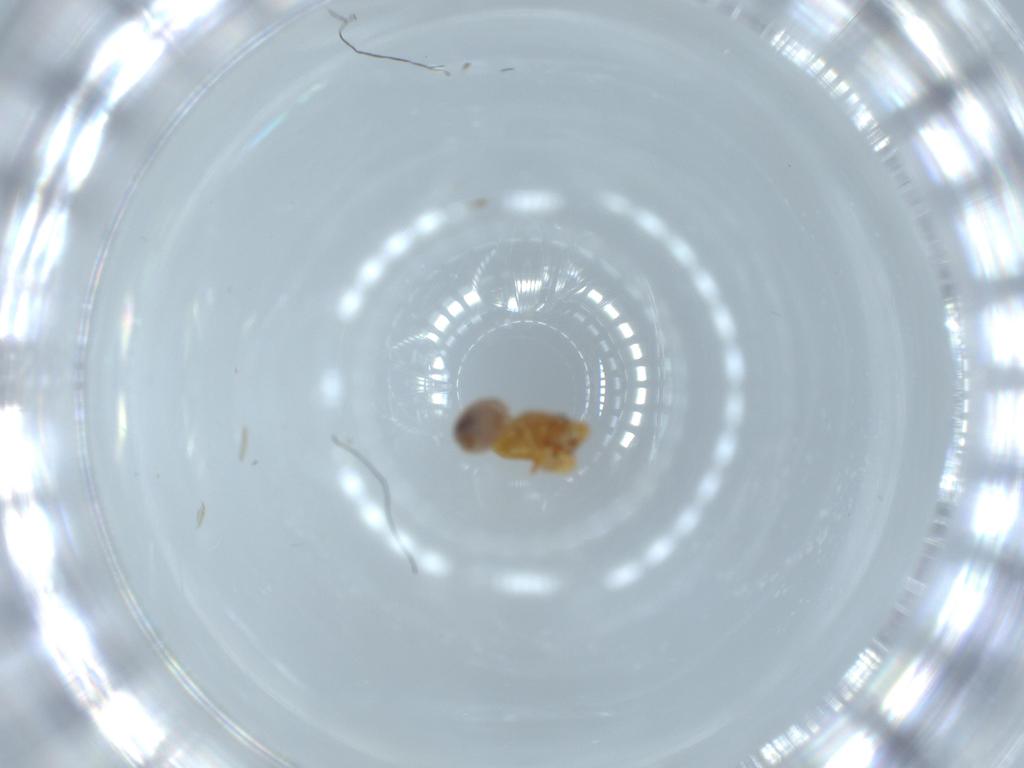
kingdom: Animalia
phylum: Arthropoda
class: Arachnida
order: Araneae
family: Oonopidae
